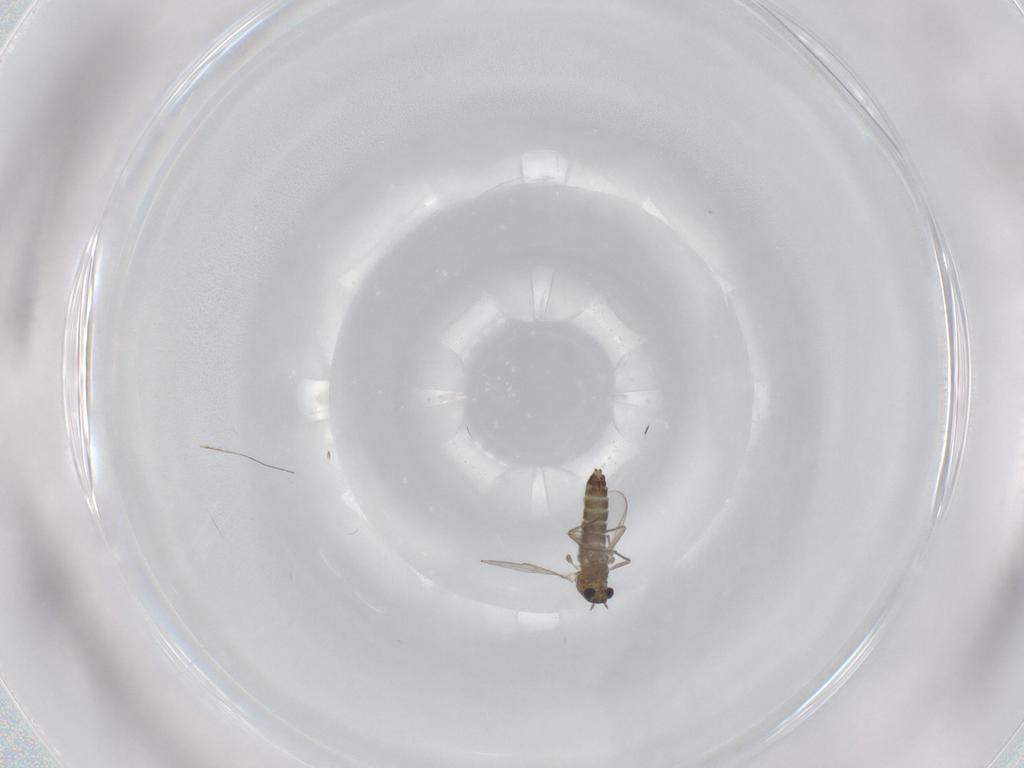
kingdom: Animalia
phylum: Arthropoda
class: Insecta
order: Diptera
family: Chironomidae
